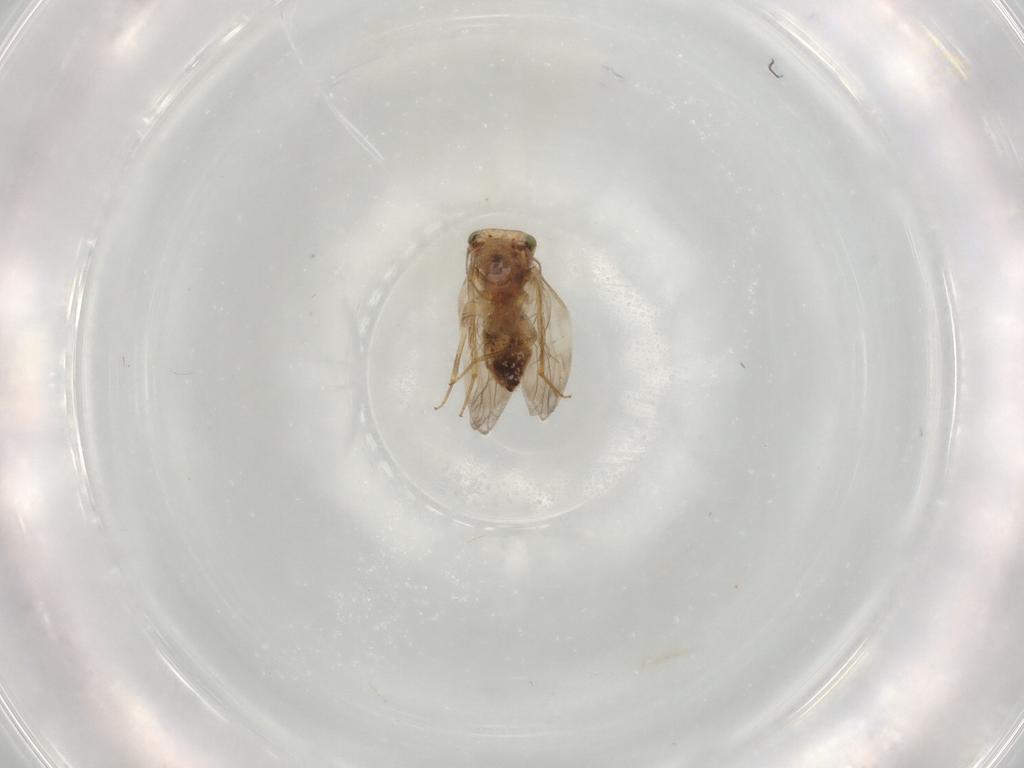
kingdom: Animalia
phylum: Arthropoda
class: Insecta
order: Psocodea
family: Lepidopsocidae
